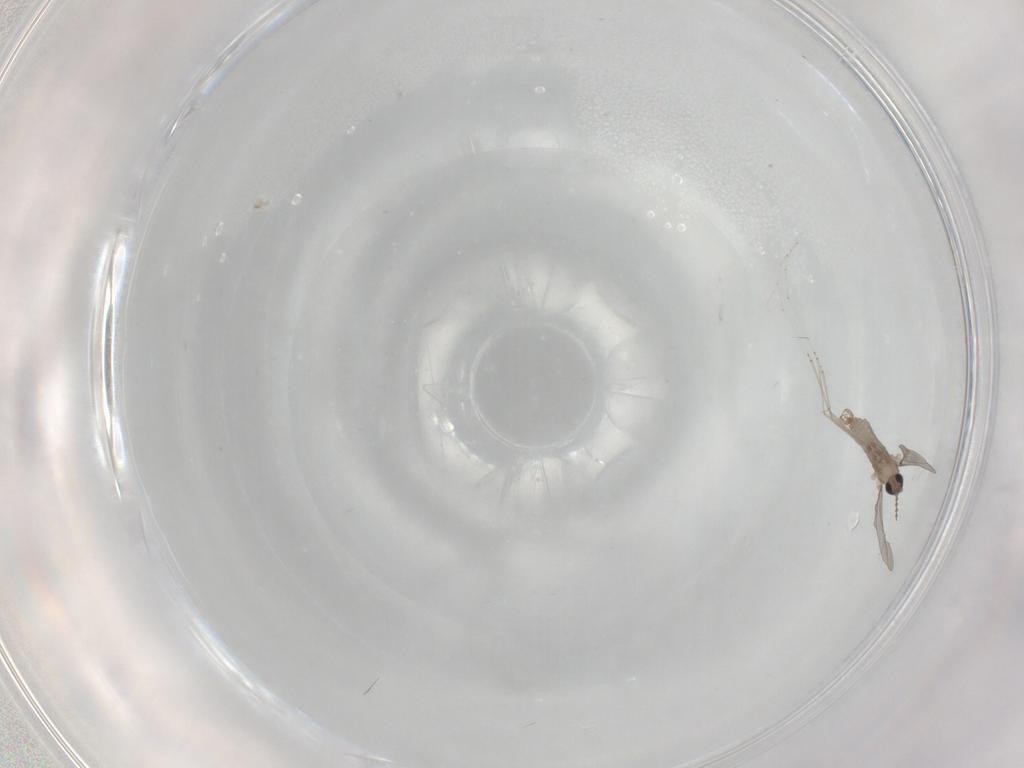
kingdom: Animalia
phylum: Arthropoda
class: Insecta
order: Diptera
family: Cecidomyiidae
